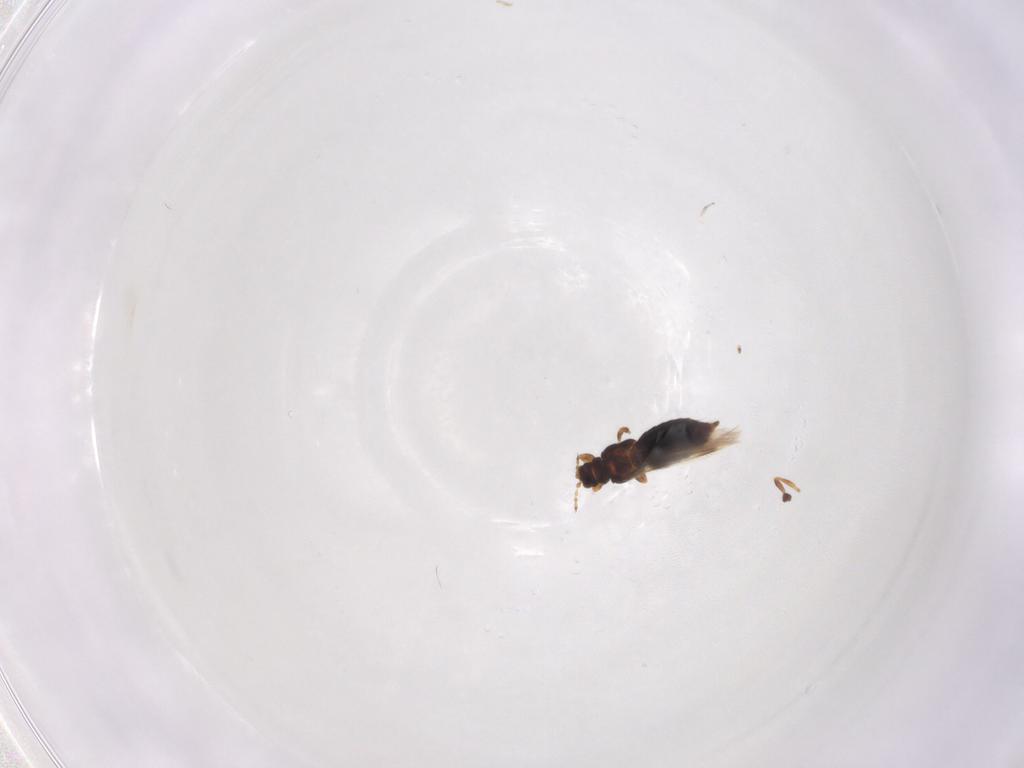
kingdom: Animalia
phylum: Arthropoda
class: Insecta
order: Thysanoptera
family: Thripidae
